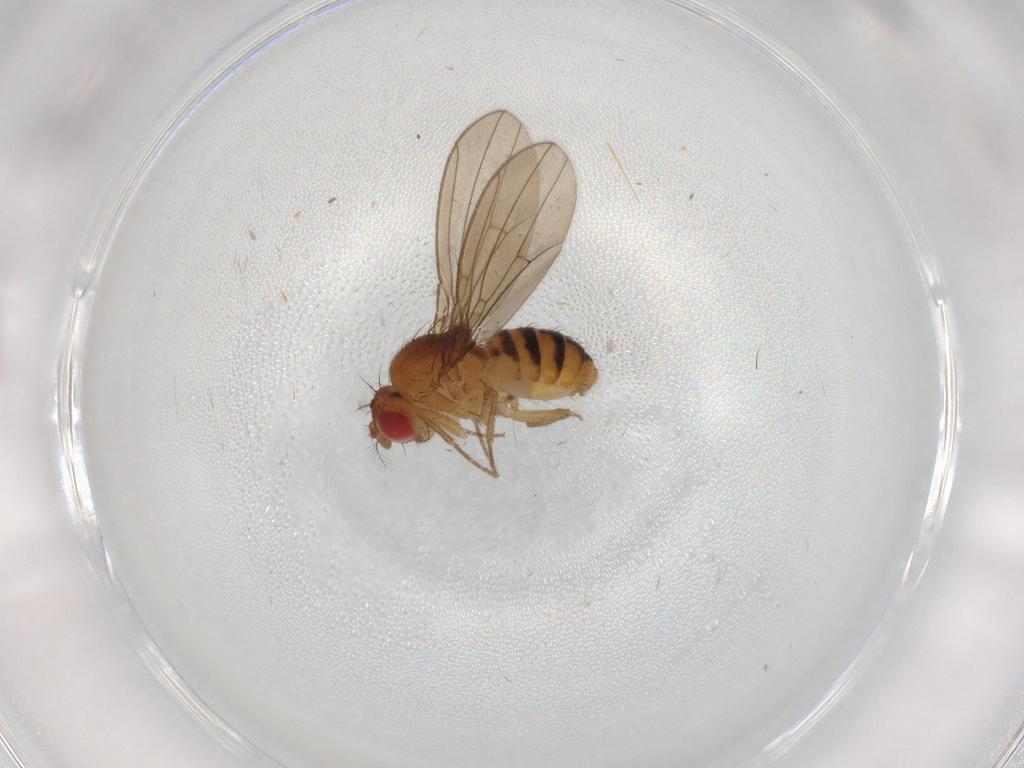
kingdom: Animalia
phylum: Arthropoda
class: Insecta
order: Diptera
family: Drosophilidae
